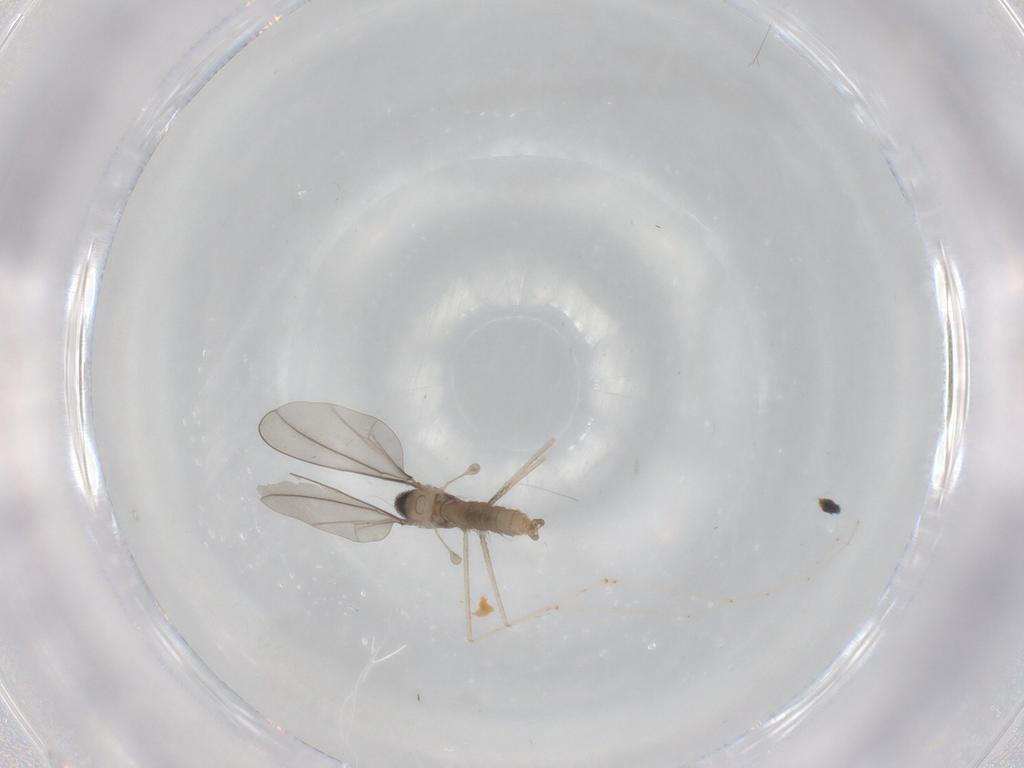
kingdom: Animalia
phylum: Arthropoda
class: Insecta
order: Diptera
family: Cecidomyiidae
